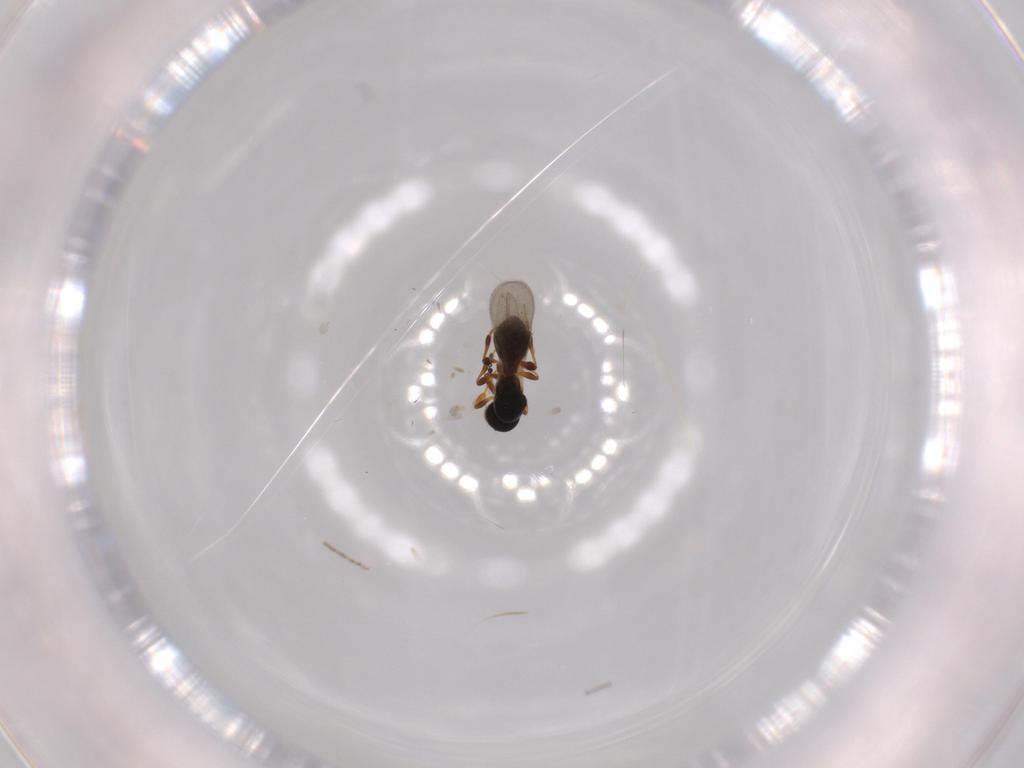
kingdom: Animalia
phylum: Arthropoda
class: Insecta
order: Hymenoptera
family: Platygastridae
